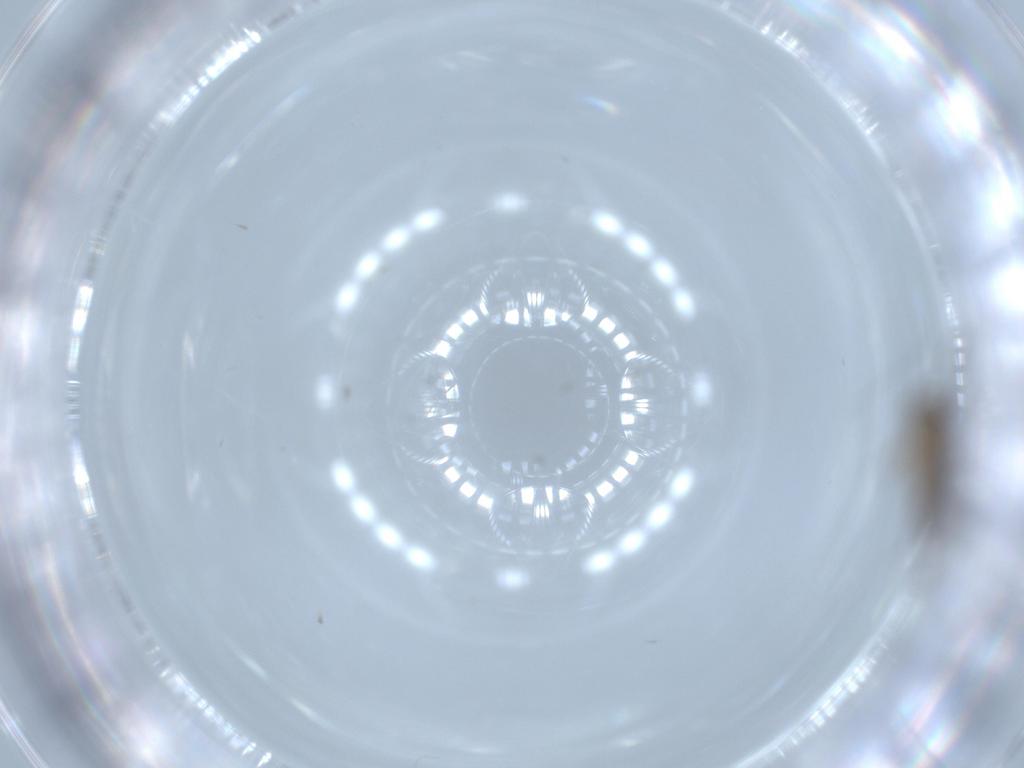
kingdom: Animalia
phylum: Arthropoda
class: Insecta
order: Diptera
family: Sciaridae
